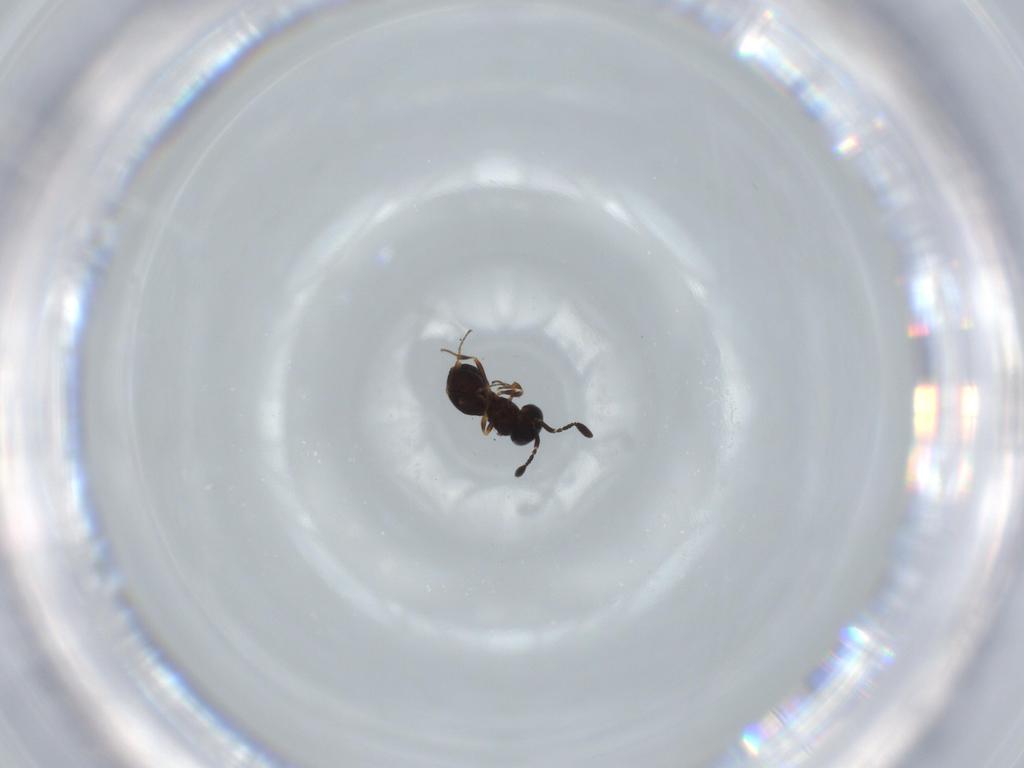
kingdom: Animalia
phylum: Arthropoda
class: Insecta
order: Hymenoptera
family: Scelionidae
